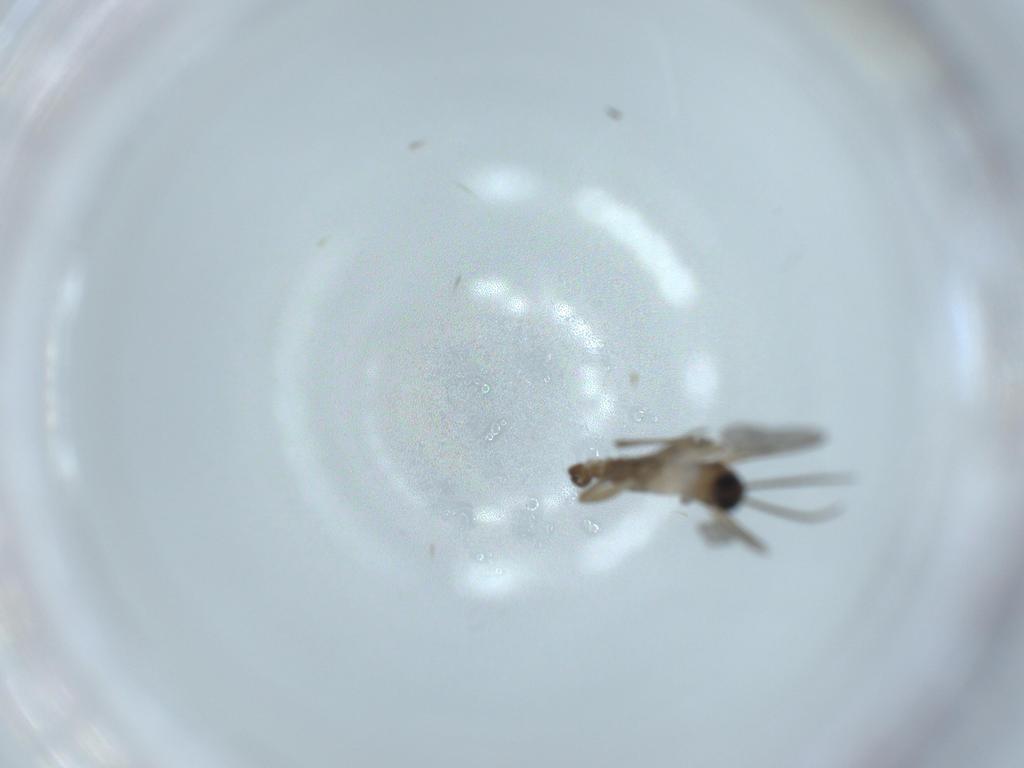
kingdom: Animalia
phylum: Arthropoda
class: Insecta
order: Diptera
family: Sciaridae
